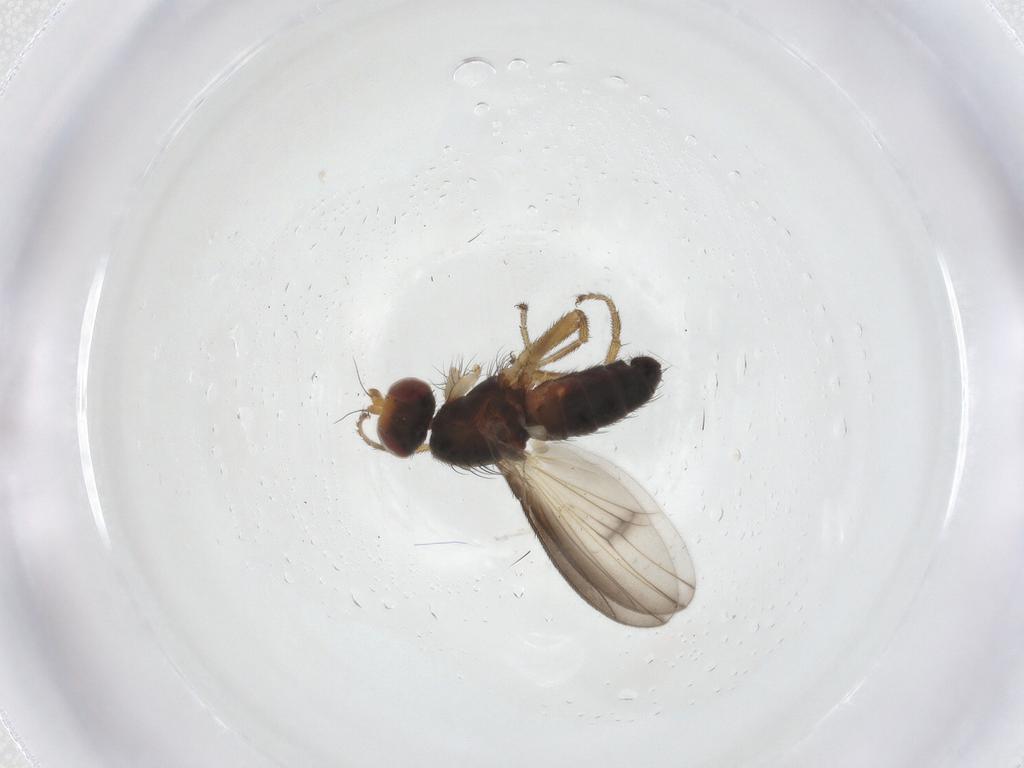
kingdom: Animalia
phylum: Arthropoda
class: Insecta
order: Diptera
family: Heleomyzidae
